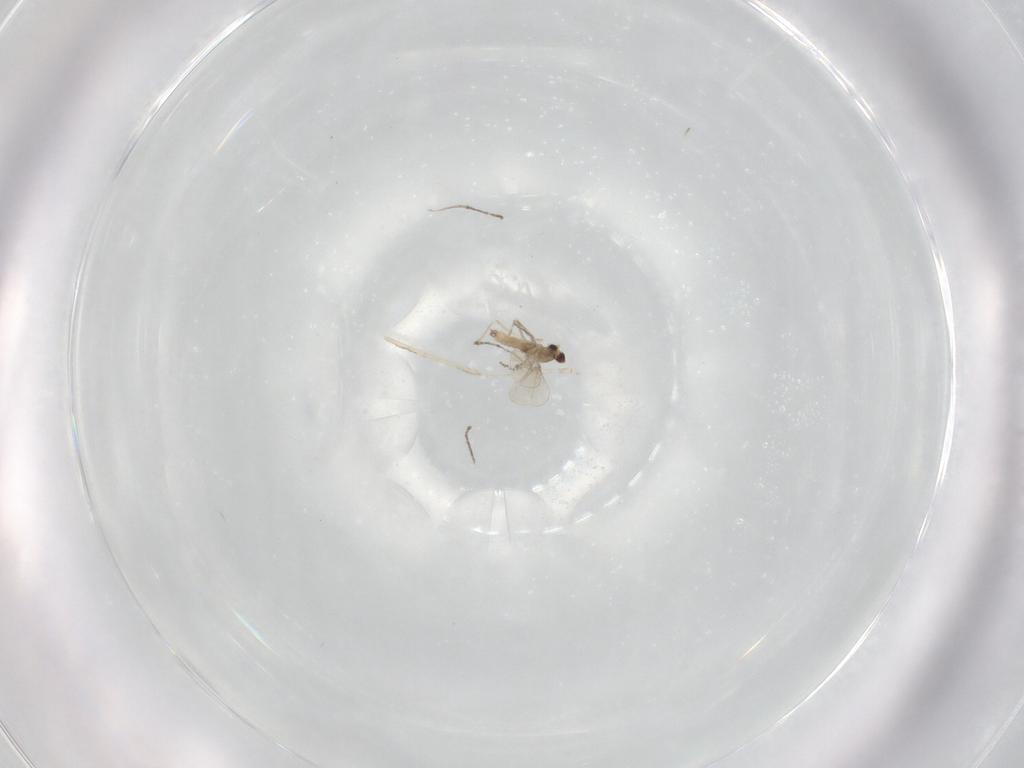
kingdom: Animalia
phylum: Arthropoda
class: Insecta
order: Diptera
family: Cecidomyiidae
